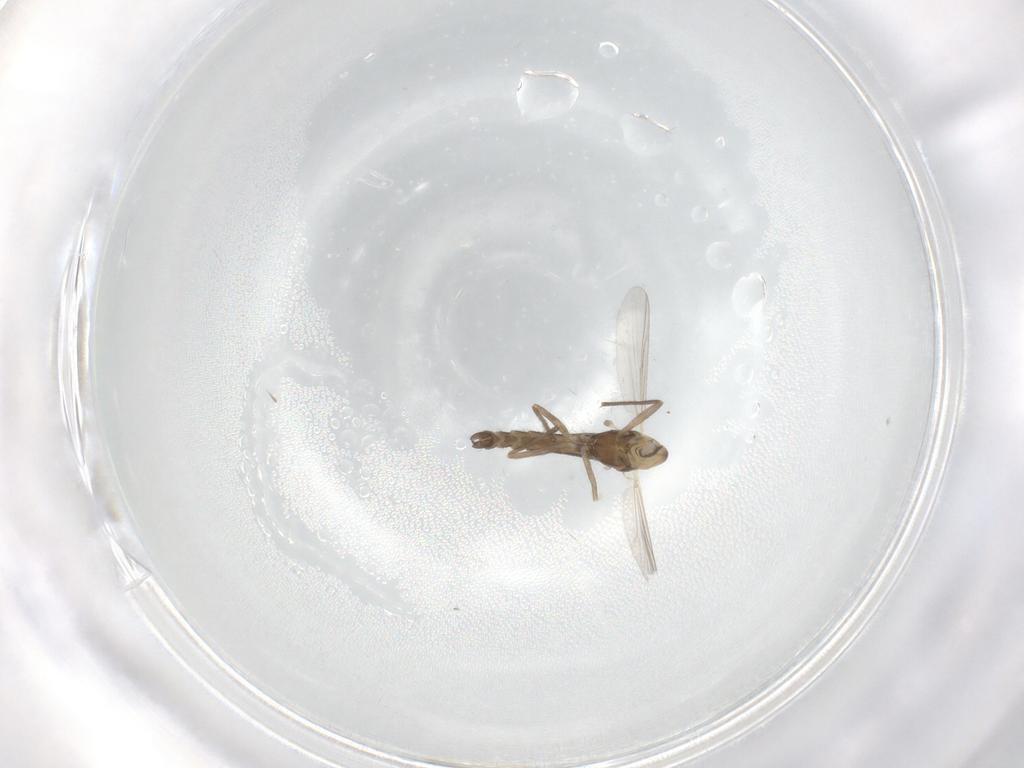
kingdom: Animalia
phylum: Arthropoda
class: Insecta
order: Diptera
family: Chironomidae
